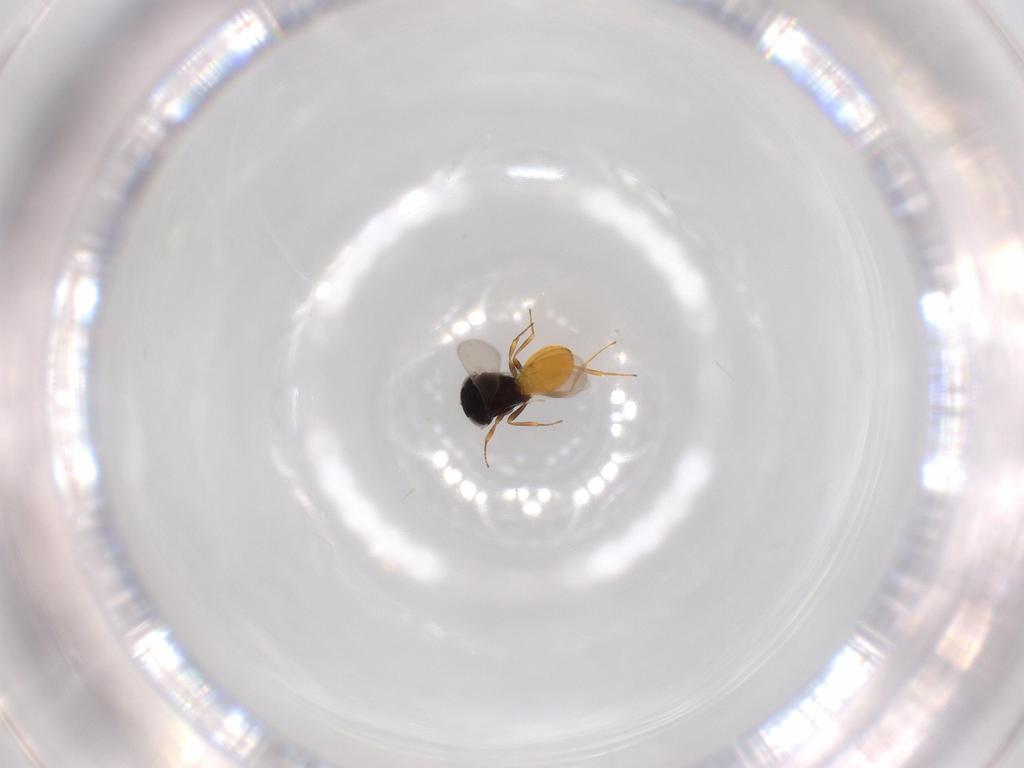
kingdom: Animalia
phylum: Arthropoda
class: Insecta
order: Hymenoptera
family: Scelionidae
